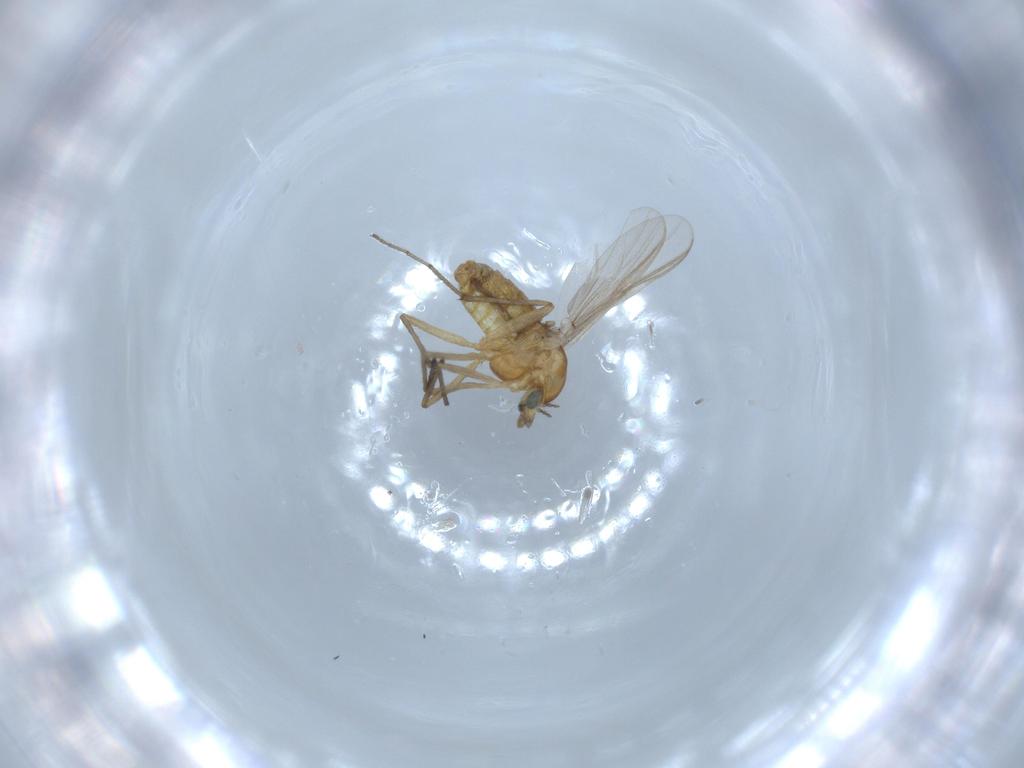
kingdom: Animalia
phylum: Arthropoda
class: Insecta
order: Diptera
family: Chironomidae
